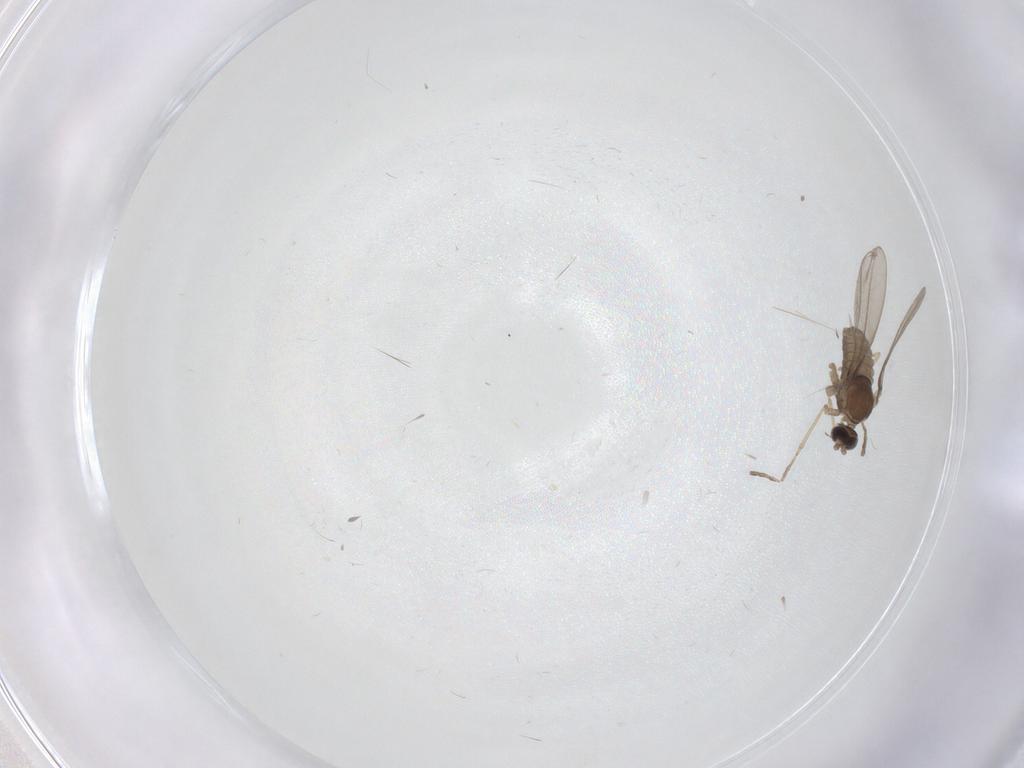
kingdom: Animalia
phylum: Arthropoda
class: Insecta
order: Diptera
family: Cecidomyiidae
